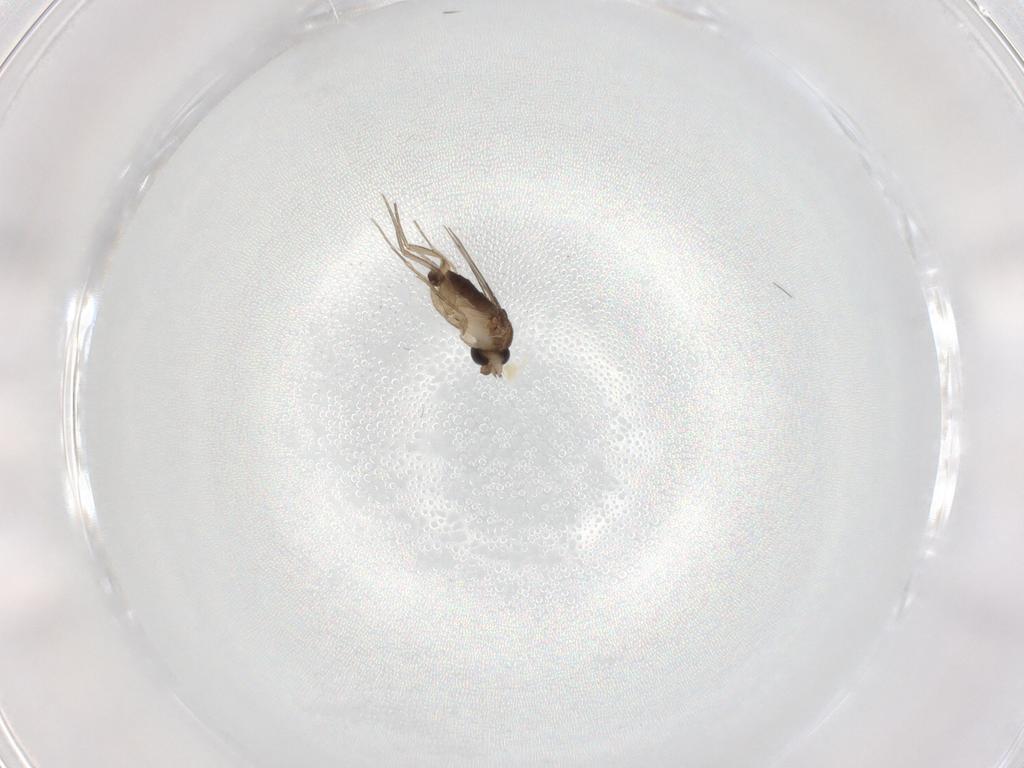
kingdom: Animalia
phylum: Arthropoda
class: Insecta
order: Diptera
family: Phoridae
